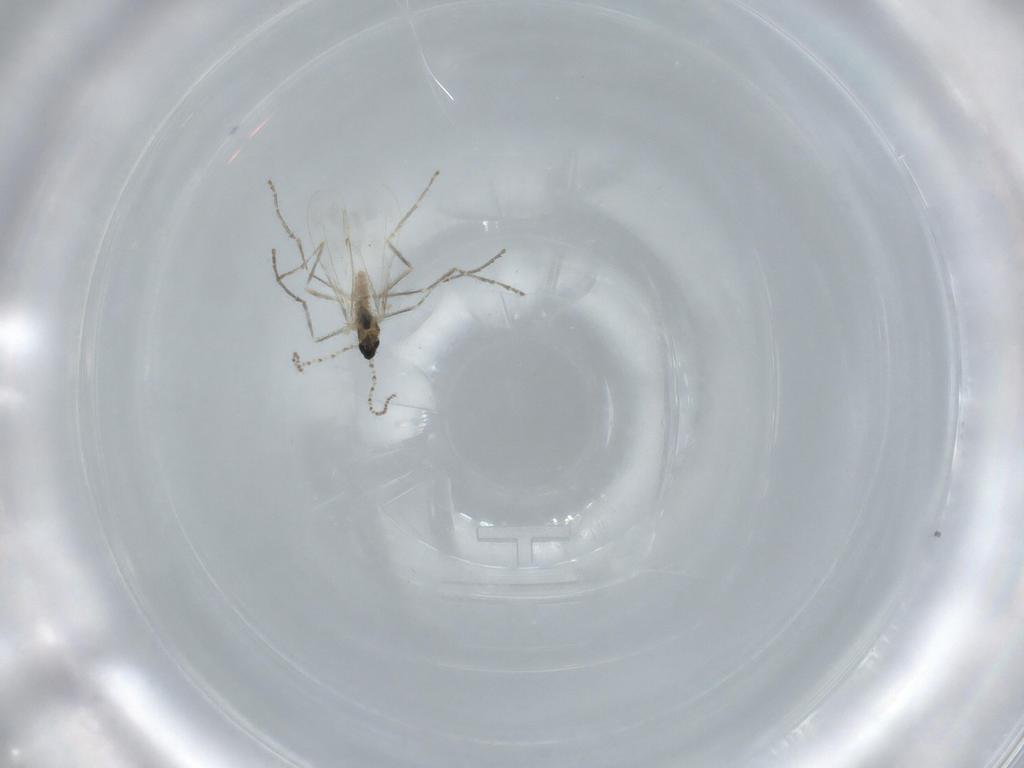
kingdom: Animalia
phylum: Arthropoda
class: Insecta
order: Diptera
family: Cecidomyiidae
